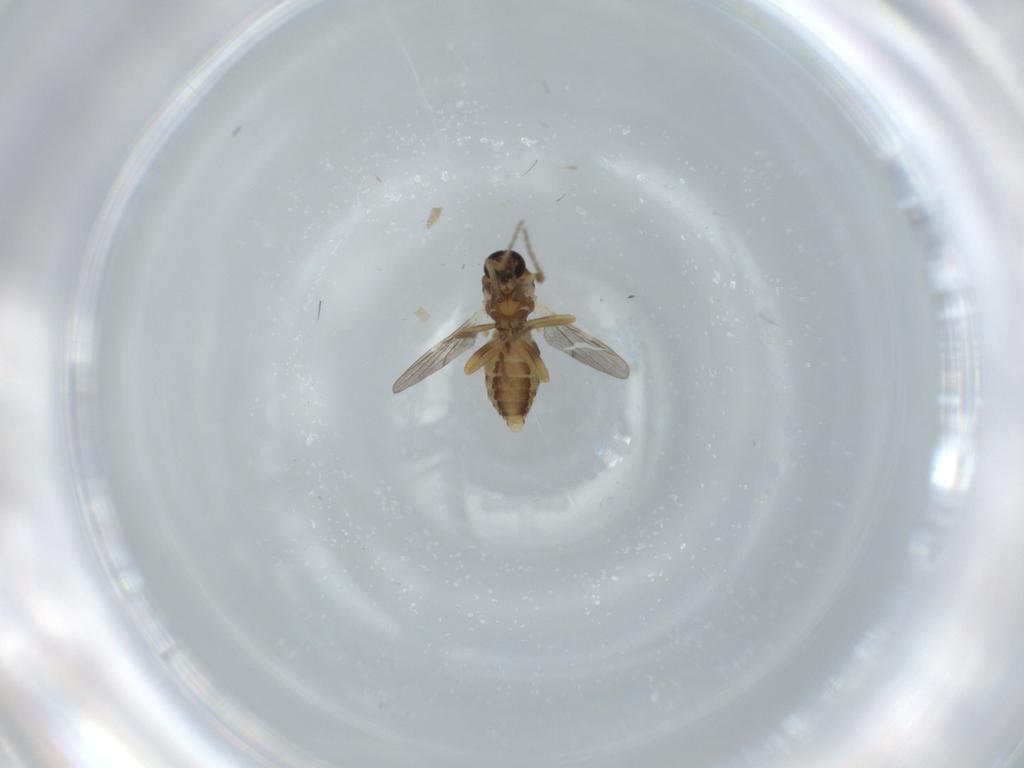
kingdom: Animalia
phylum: Arthropoda
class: Insecta
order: Diptera
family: Ceratopogonidae
